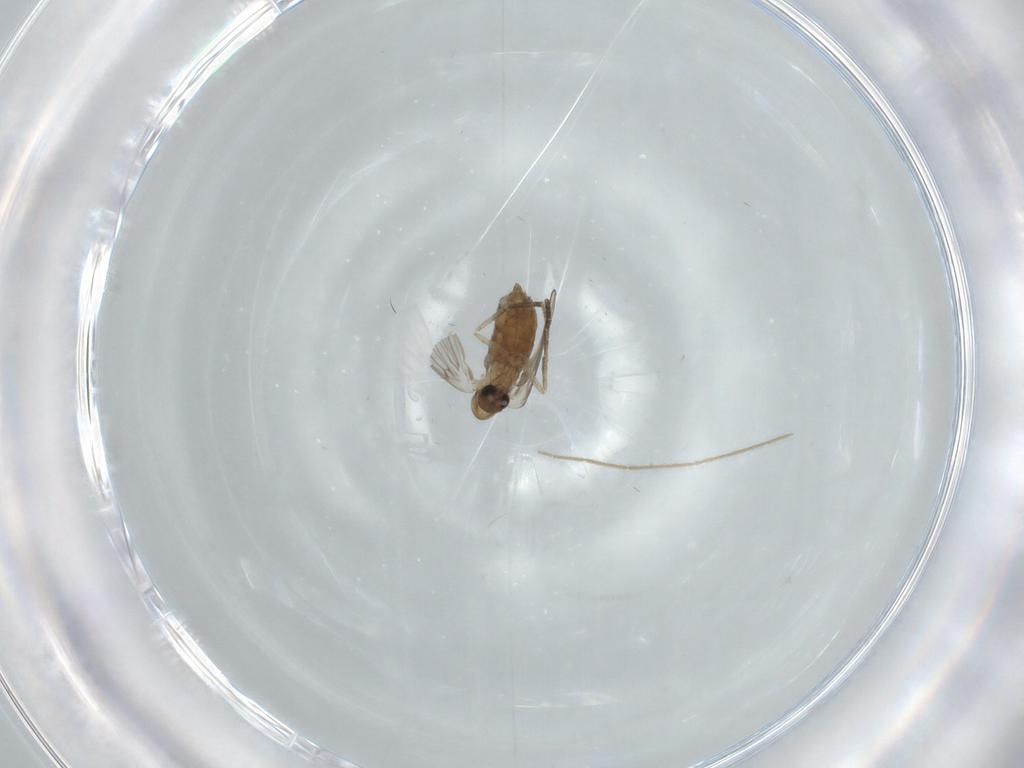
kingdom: Animalia
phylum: Arthropoda
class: Insecta
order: Diptera
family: Psychodidae
